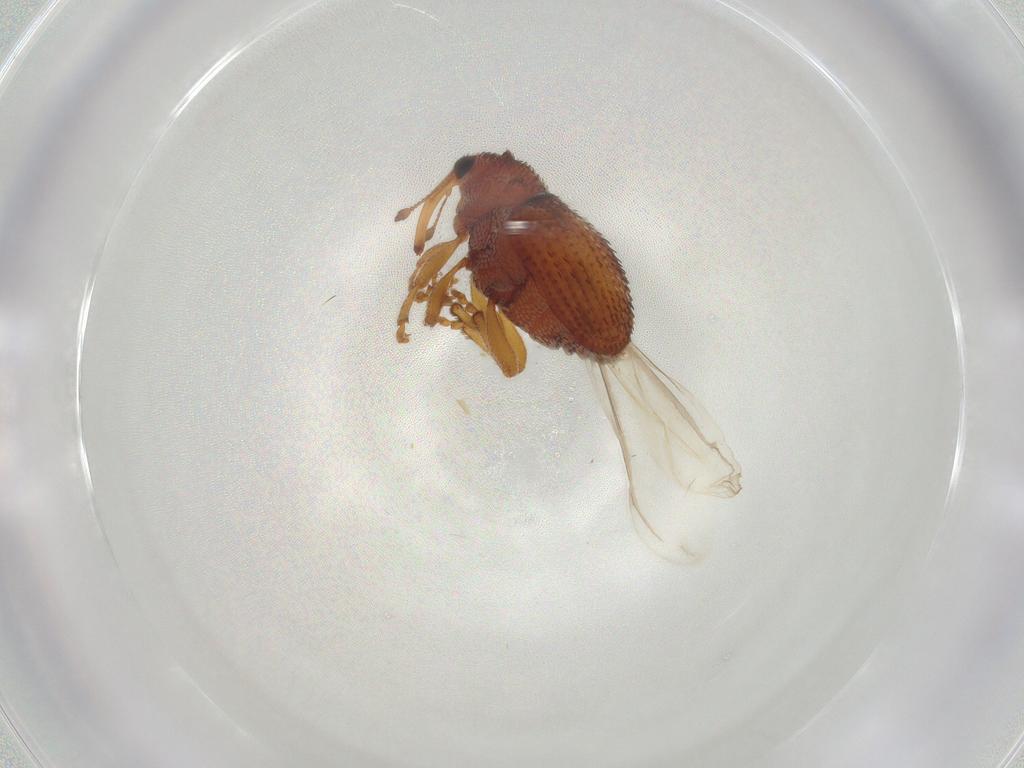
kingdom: Animalia
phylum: Arthropoda
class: Insecta
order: Coleoptera
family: Curculionidae
